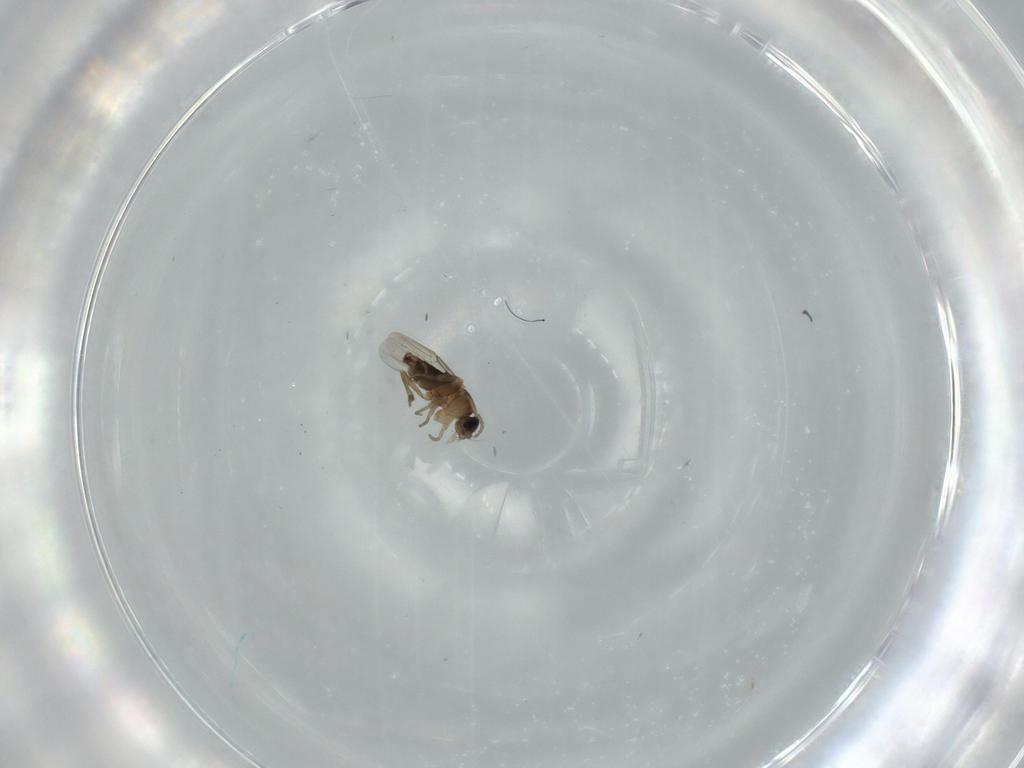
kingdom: Animalia
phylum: Arthropoda
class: Insecta
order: Diptera
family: Phoridae
